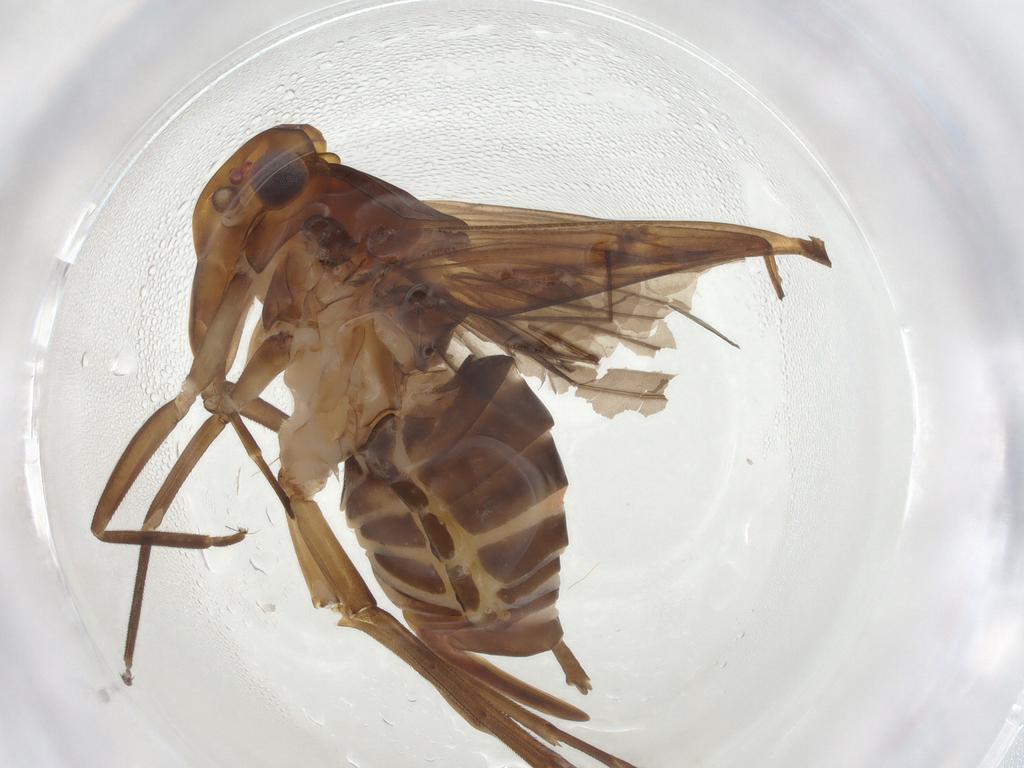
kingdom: Animalia
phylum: Arthropoda
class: Insecta
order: Hemiptera
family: Cicadellidae
